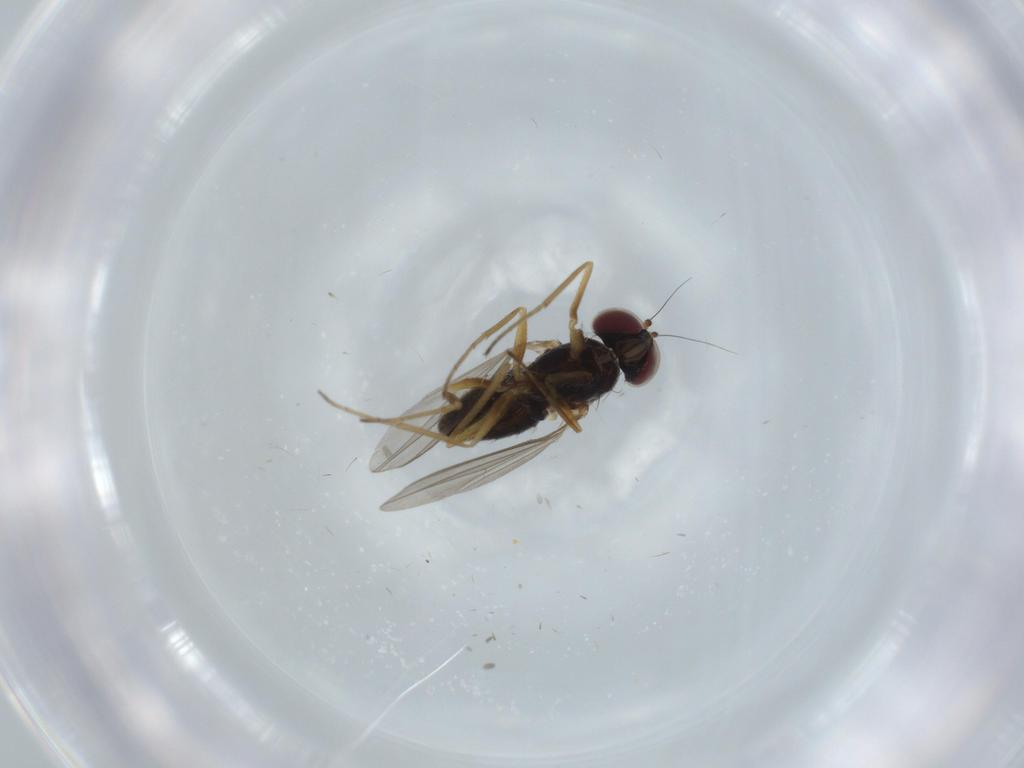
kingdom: Animalia
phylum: Arthropoda
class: Insecta
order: Diptera
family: Dolichopodidae
